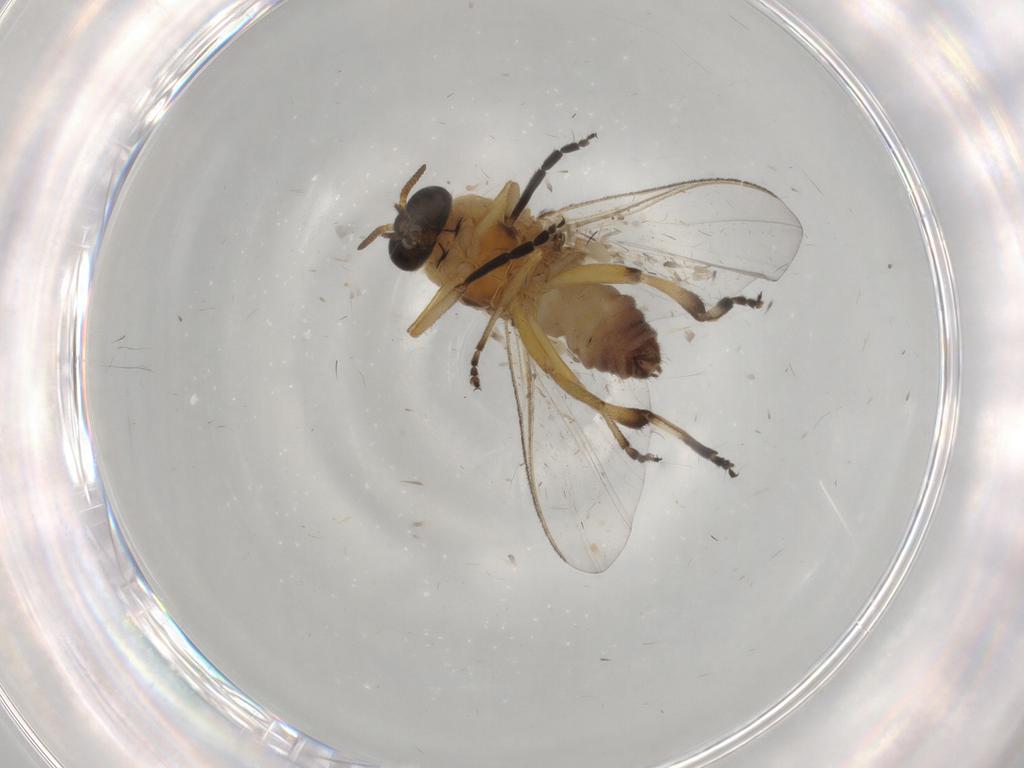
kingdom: Animalia
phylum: Arthropoda
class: Insecta
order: Diptera
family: Chironomidae
